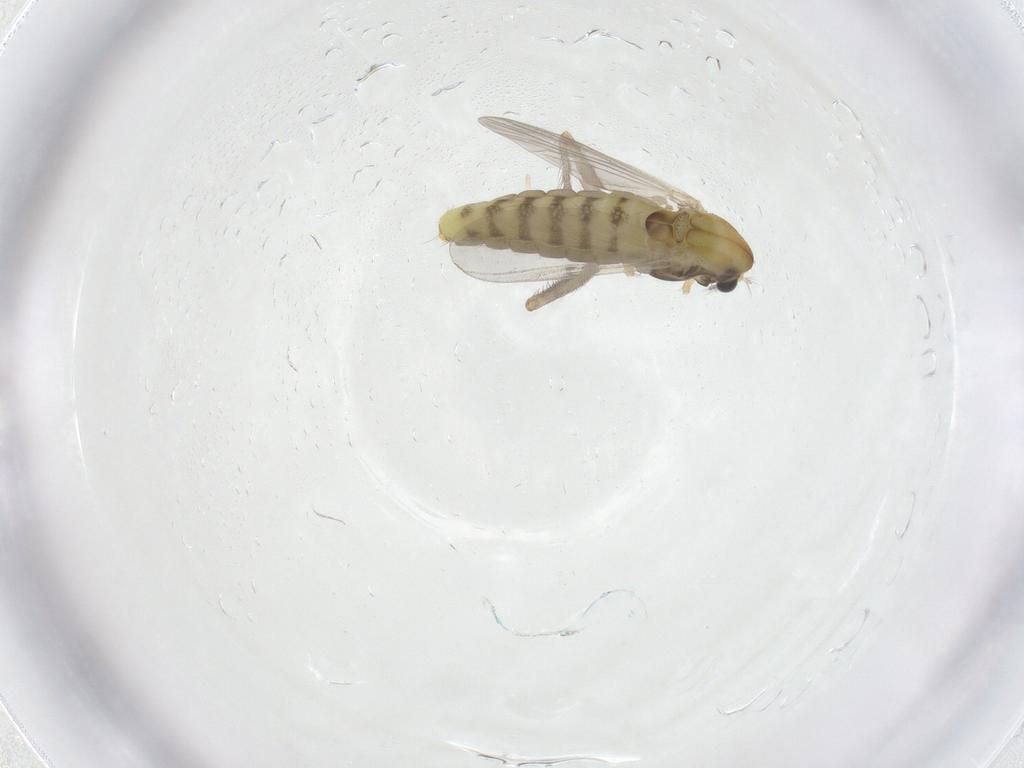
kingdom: Animalia
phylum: Arthropoda
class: Insecta
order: Diptera
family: Chironomidae
